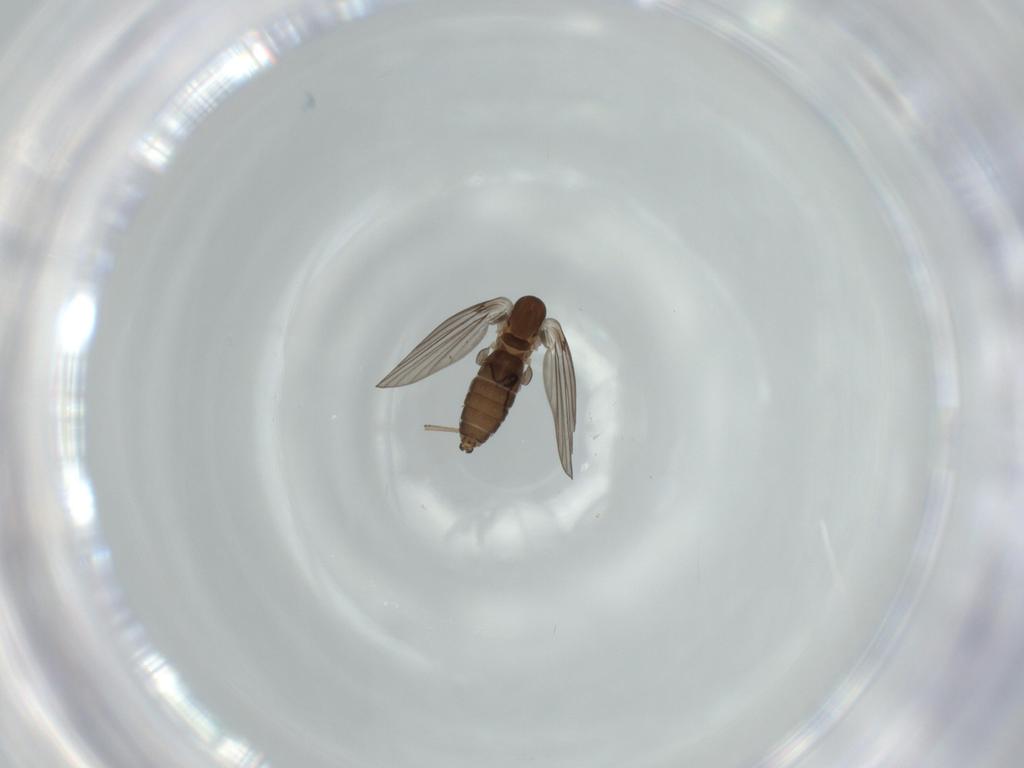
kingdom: Animalia
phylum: Arthropoda
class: Insecta
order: Diptera
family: Psychodidae
